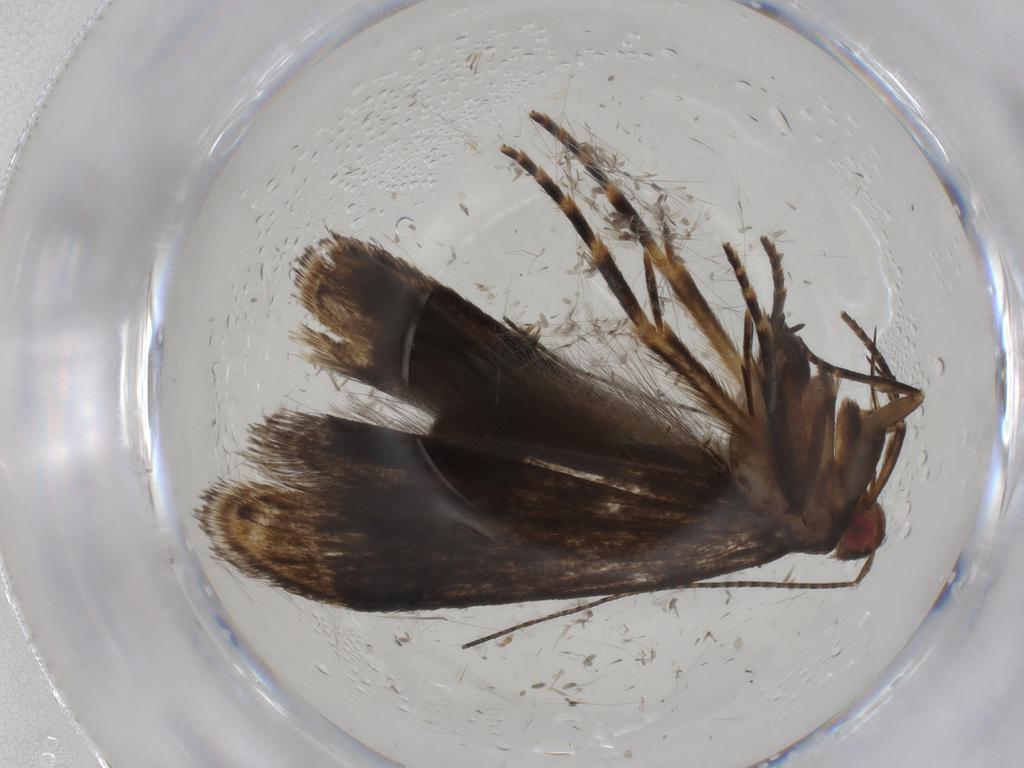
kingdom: Animalia
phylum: Arthropoda
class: Insecta
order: Lepidoptera
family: Gelechiidae
